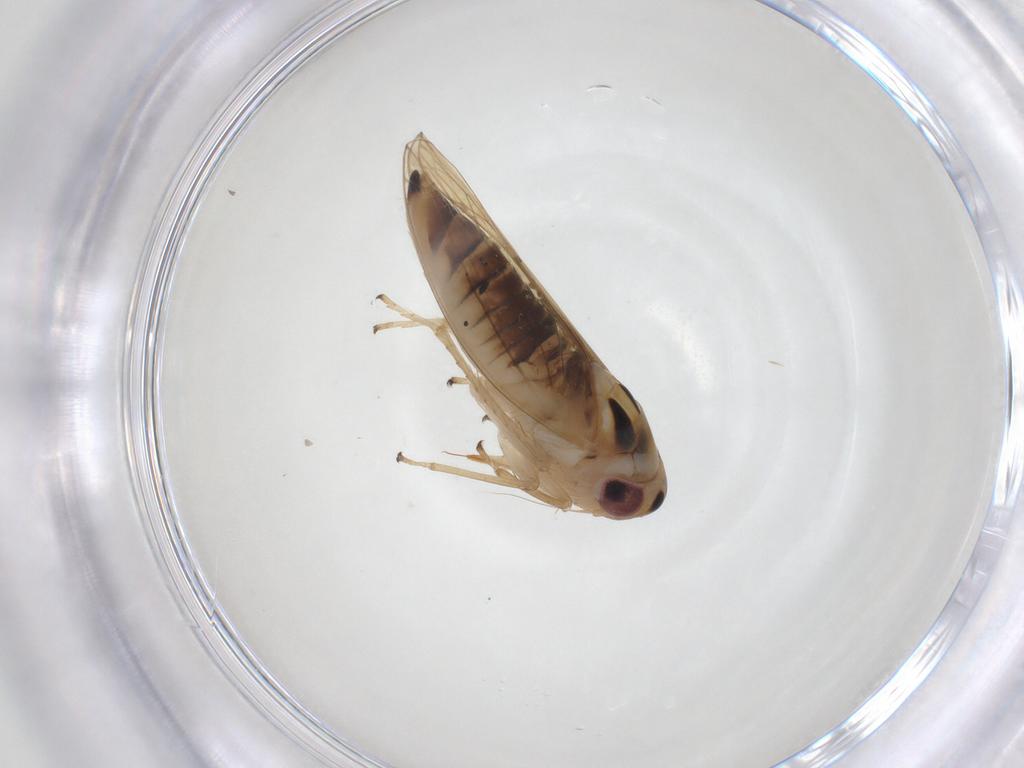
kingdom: Animalia
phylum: Arthropoda
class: Insecta
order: Hemiptera
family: Cicadellidae
